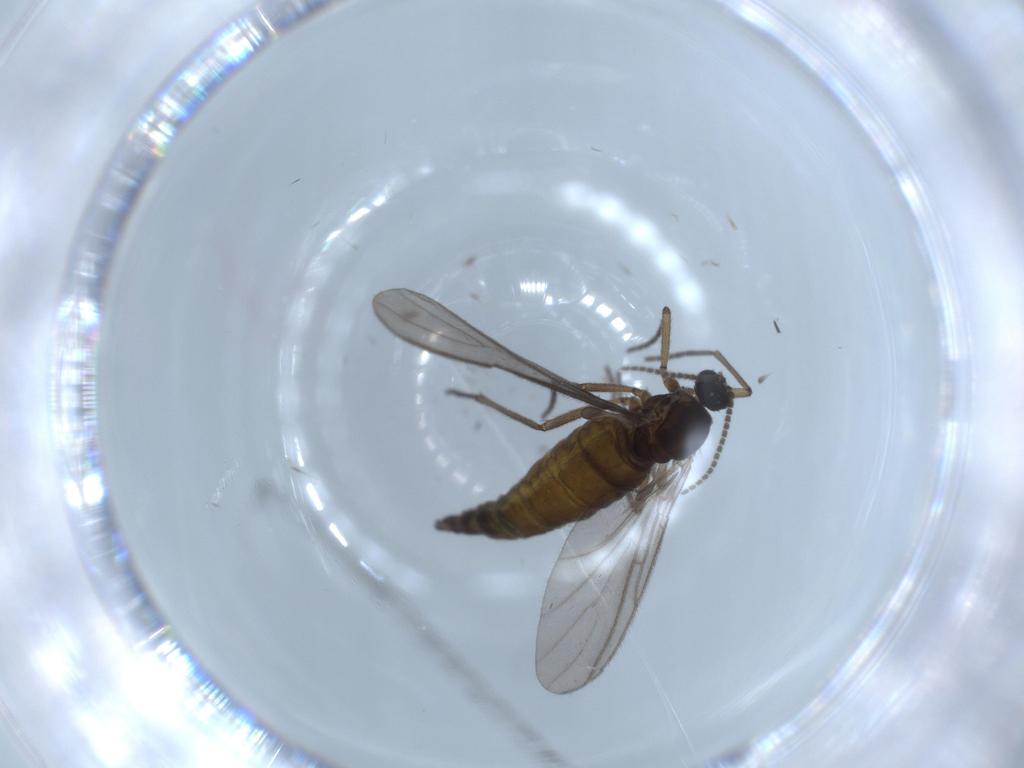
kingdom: Animalia
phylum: Arthropoda
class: Insecta
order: Diptera
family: Sciaridae
